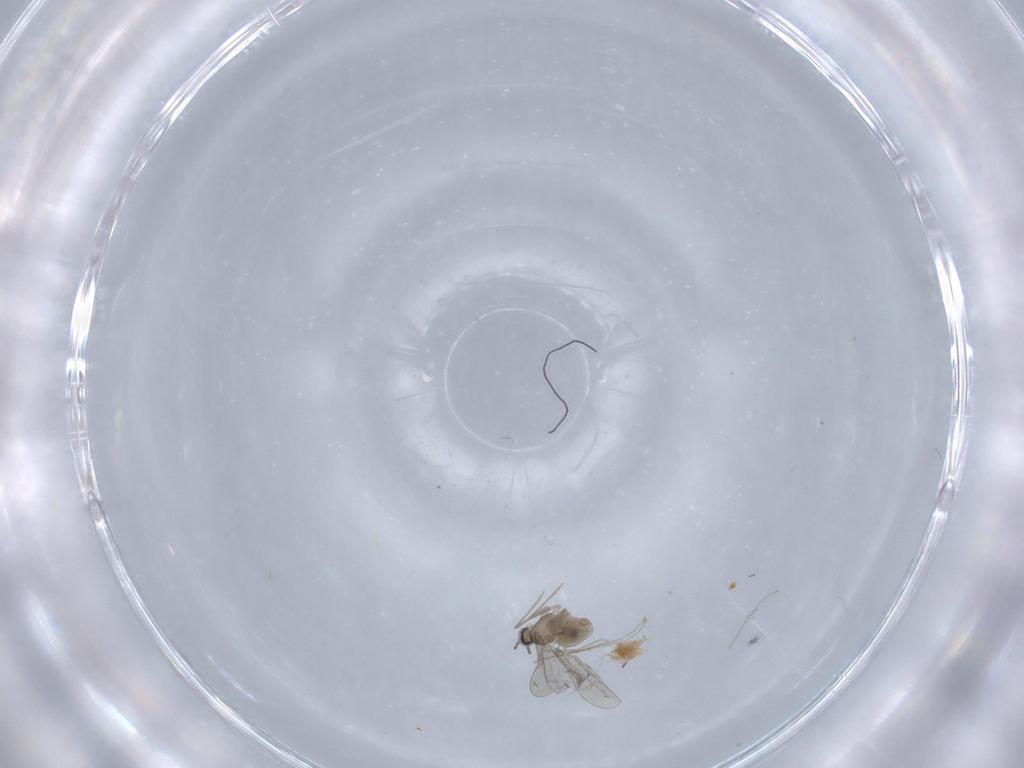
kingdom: Animalia
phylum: Arthropoda
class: Insecta
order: Diptera
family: Cecidomyiidae
